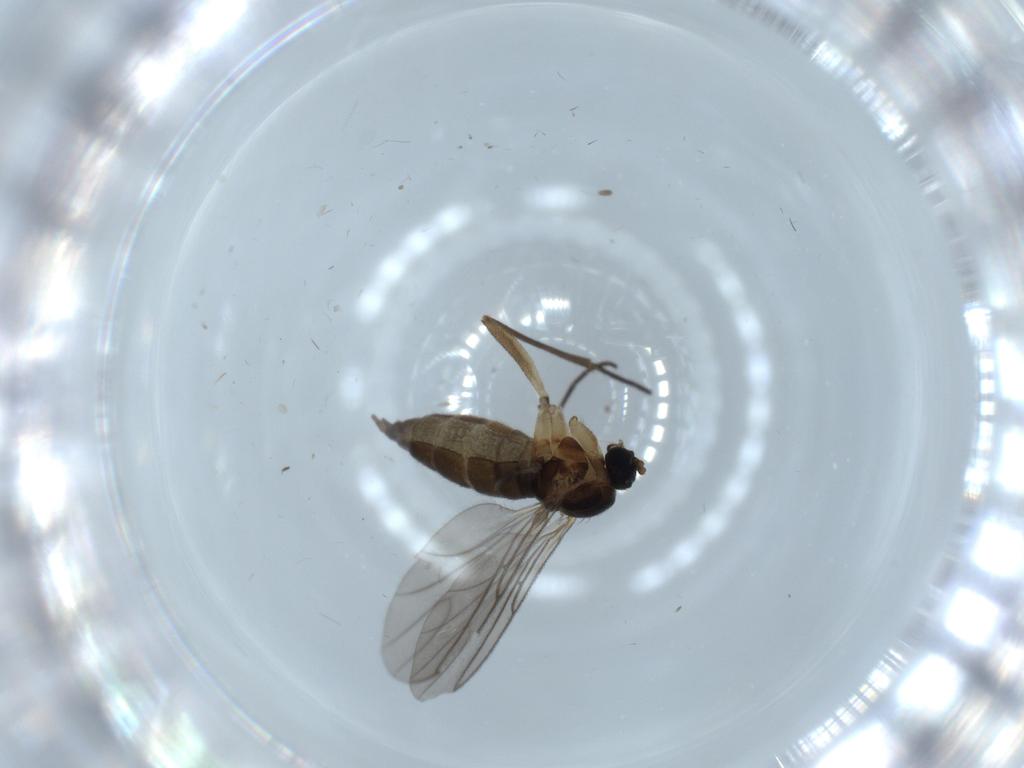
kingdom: Animalia
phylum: Arthropoda
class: Insecta
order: Diptera
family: Sciaridae
